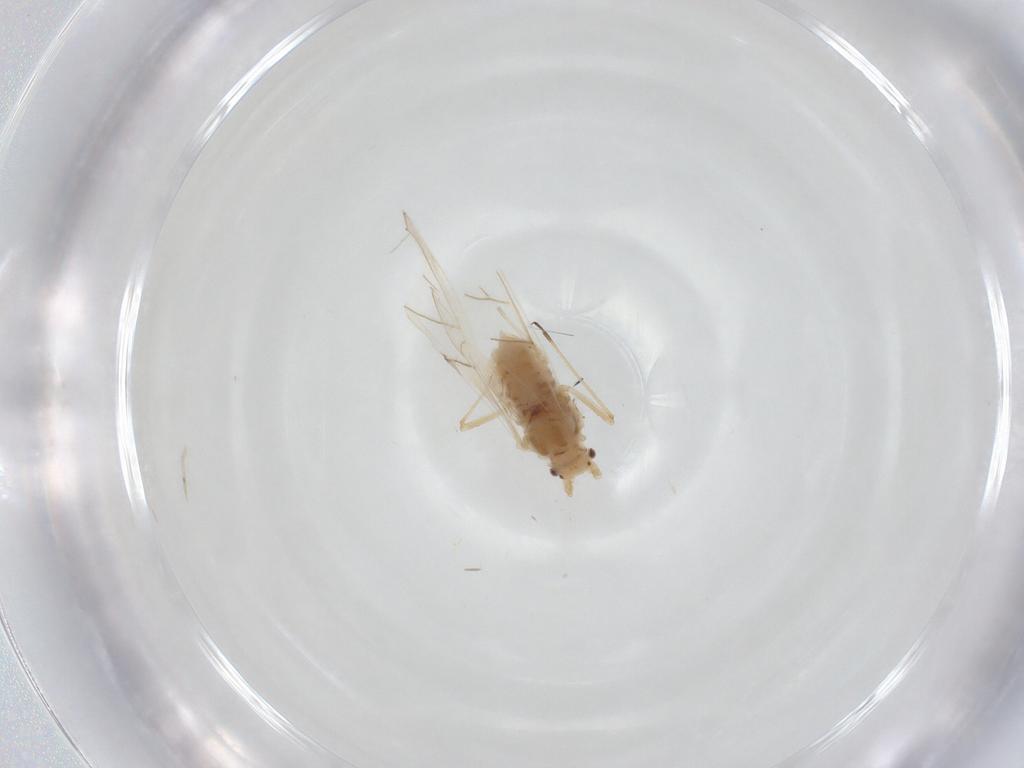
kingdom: Animalia
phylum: Arthropoda
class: Insecta
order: Hemiptera
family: Aphididae
